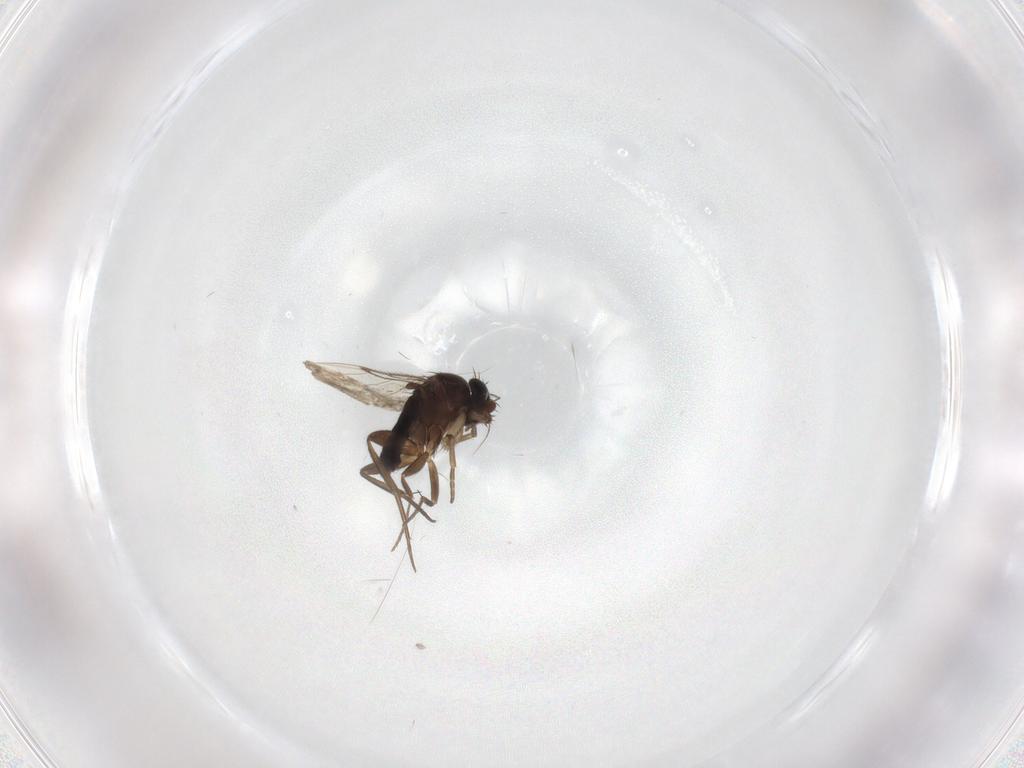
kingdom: Animalia
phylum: Arthropoda
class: Insecta
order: Diptera
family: Phoridae
